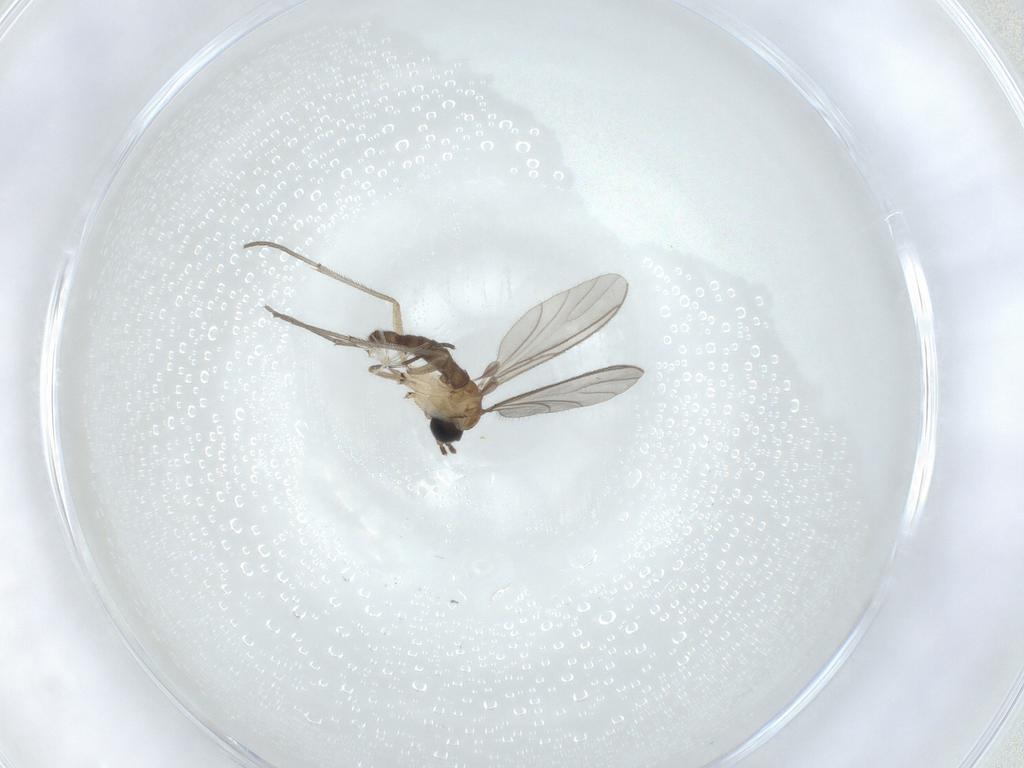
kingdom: Animalia
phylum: Arthropoda
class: Insecta
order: Diptera
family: Sciaridae
